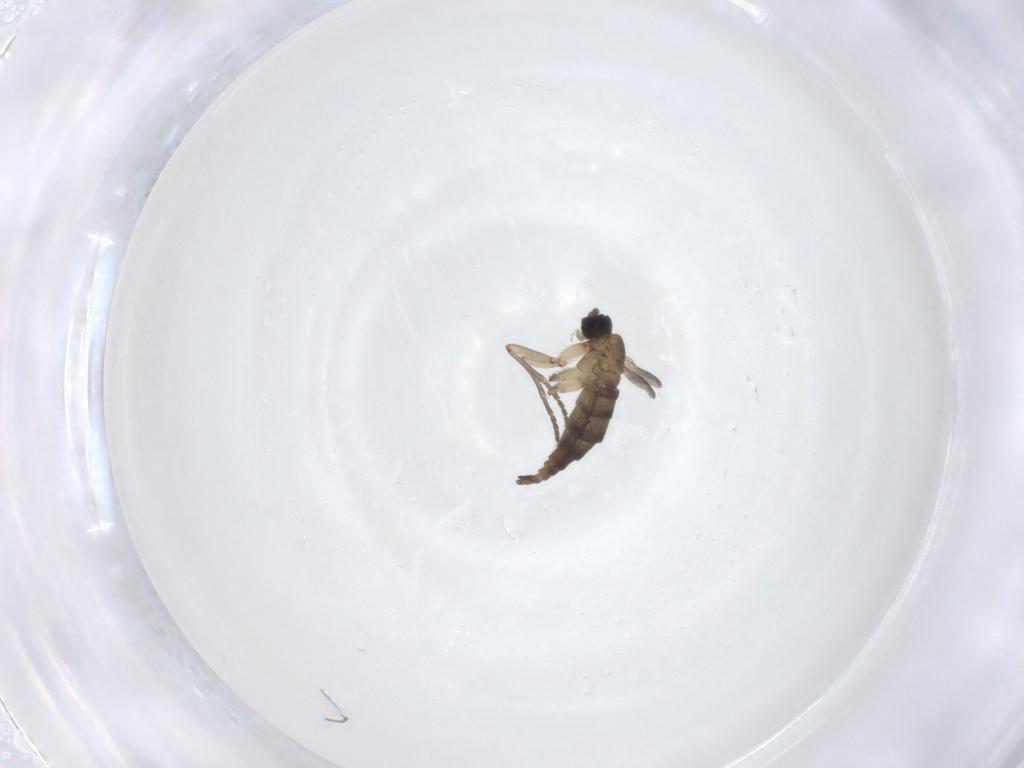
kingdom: Animalia
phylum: Arthropoda
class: Insecta
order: Diptera
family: Sciaridae
